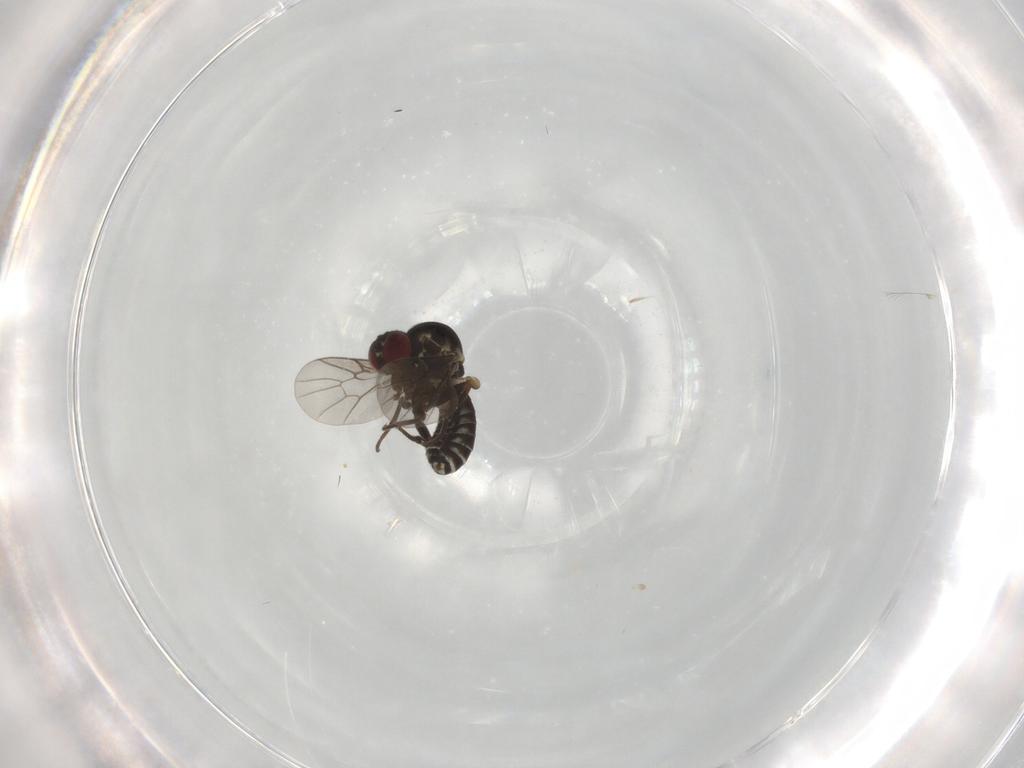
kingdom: Animalia
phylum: Arthropoda
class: Insecta
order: Diptera
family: Mythicomyiidae
